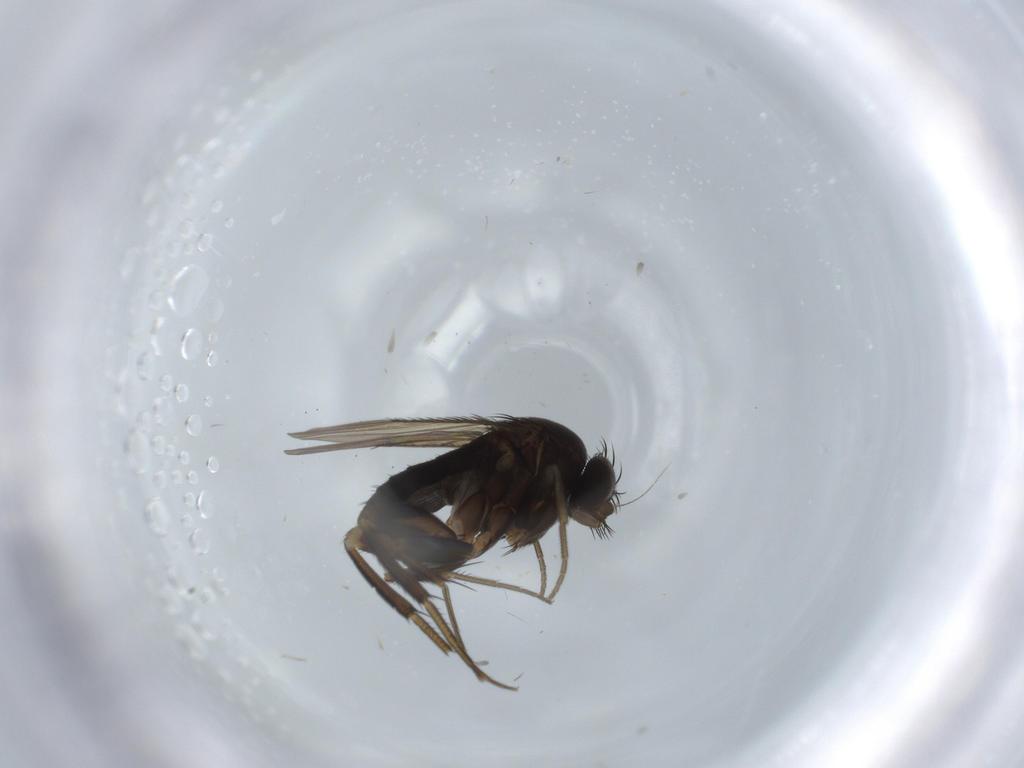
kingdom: Animalia
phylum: Arthropoda
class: Insecta
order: Diptera
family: Phoridae
